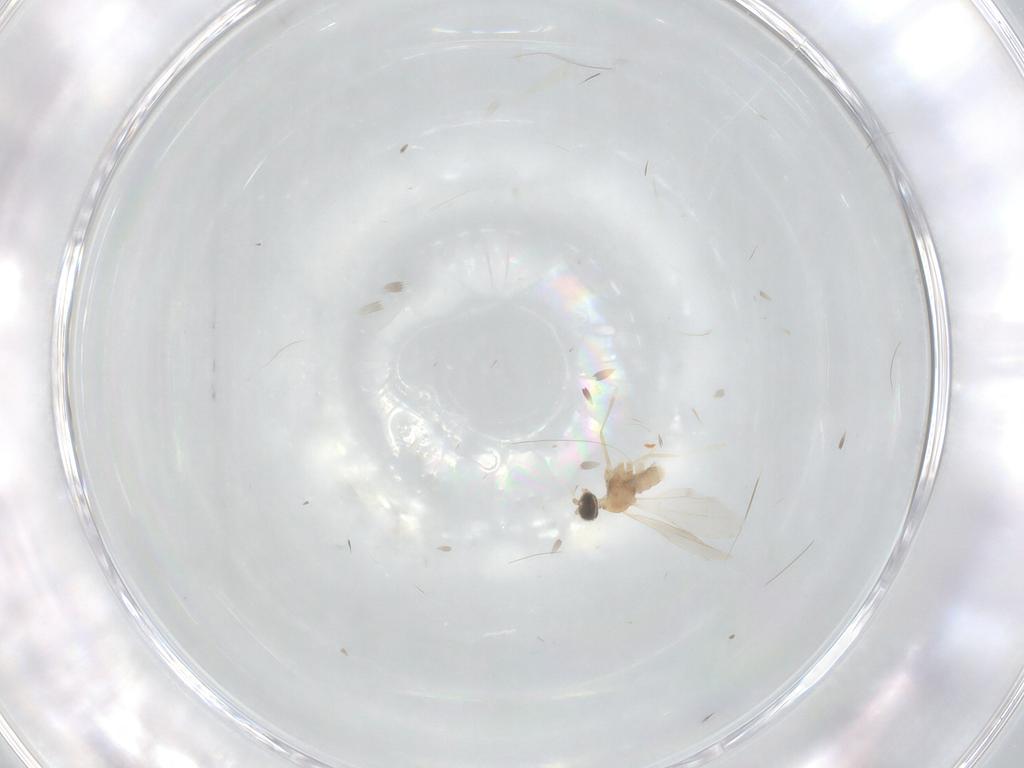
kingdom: Animalia
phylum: Arthropoda
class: Insecta
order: Diptera
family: Cecidomyiidae
